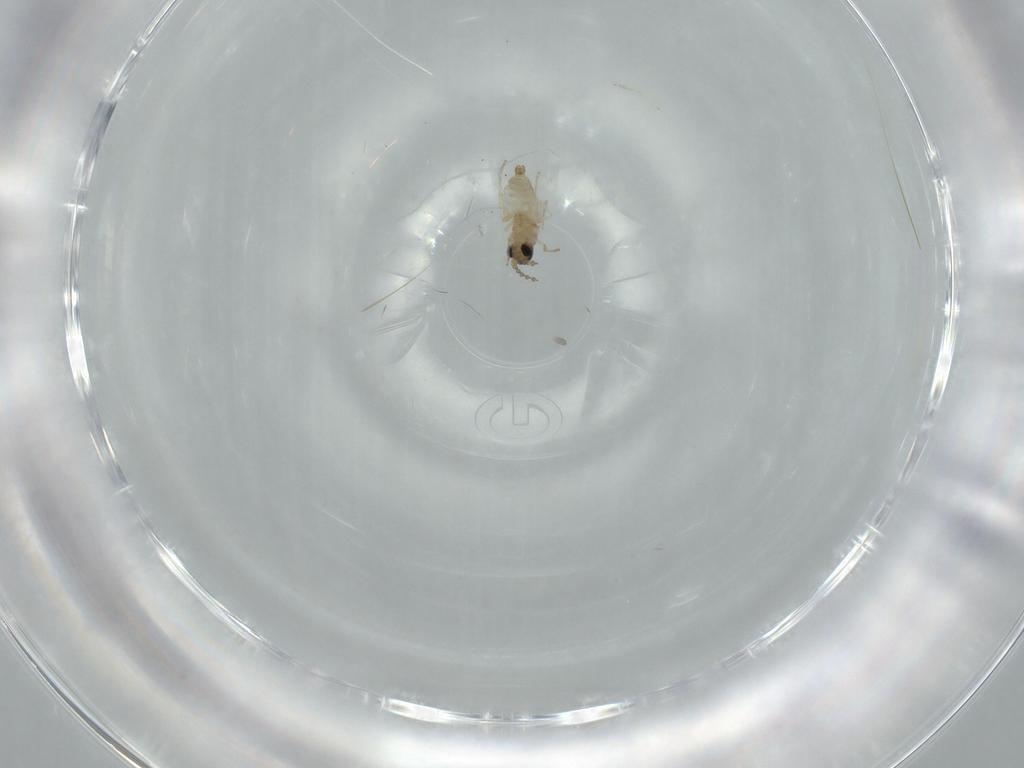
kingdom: Animalia
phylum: Arthropoda
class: Insecta
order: Diptera
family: Cecidomyiidae
